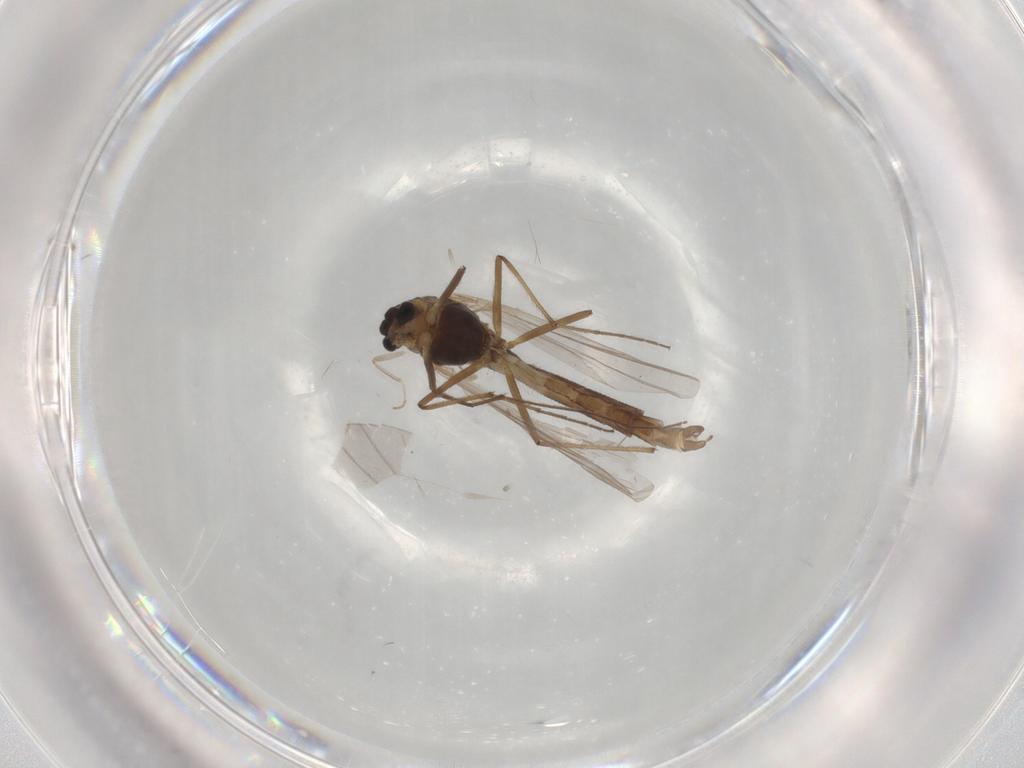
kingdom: Animalia
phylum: Arthropoda
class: Insecta
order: Diptera
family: Chironomidae
